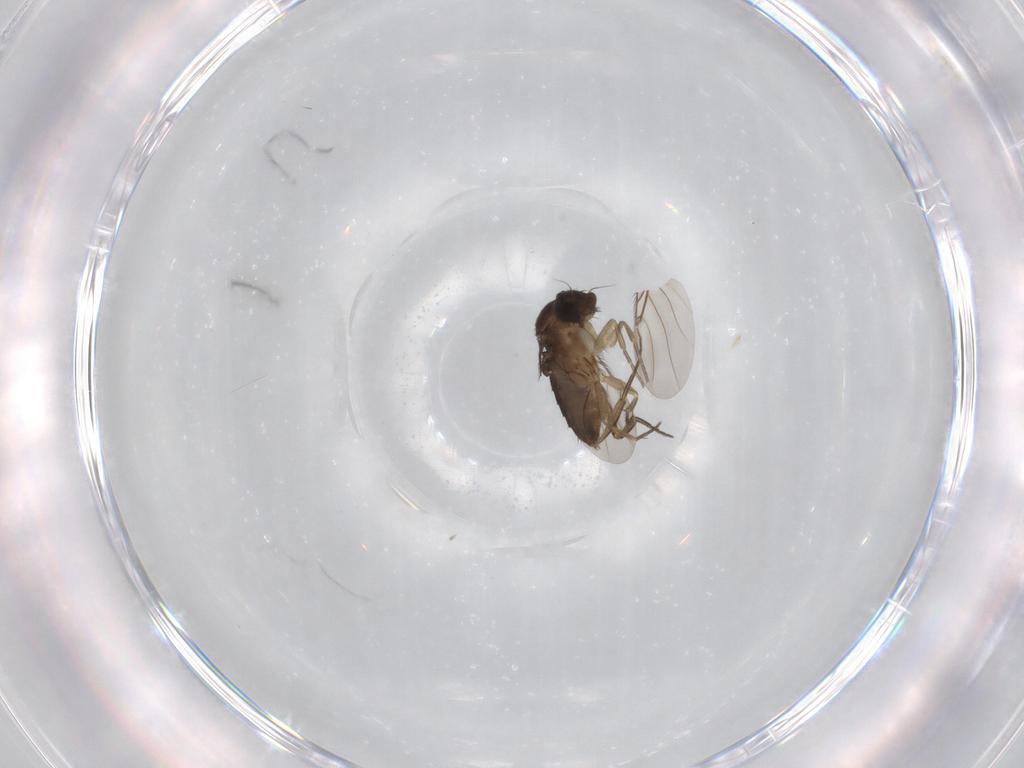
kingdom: Animalia
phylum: Arthropoda
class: Insecta
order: Diptera
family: Phoridae
